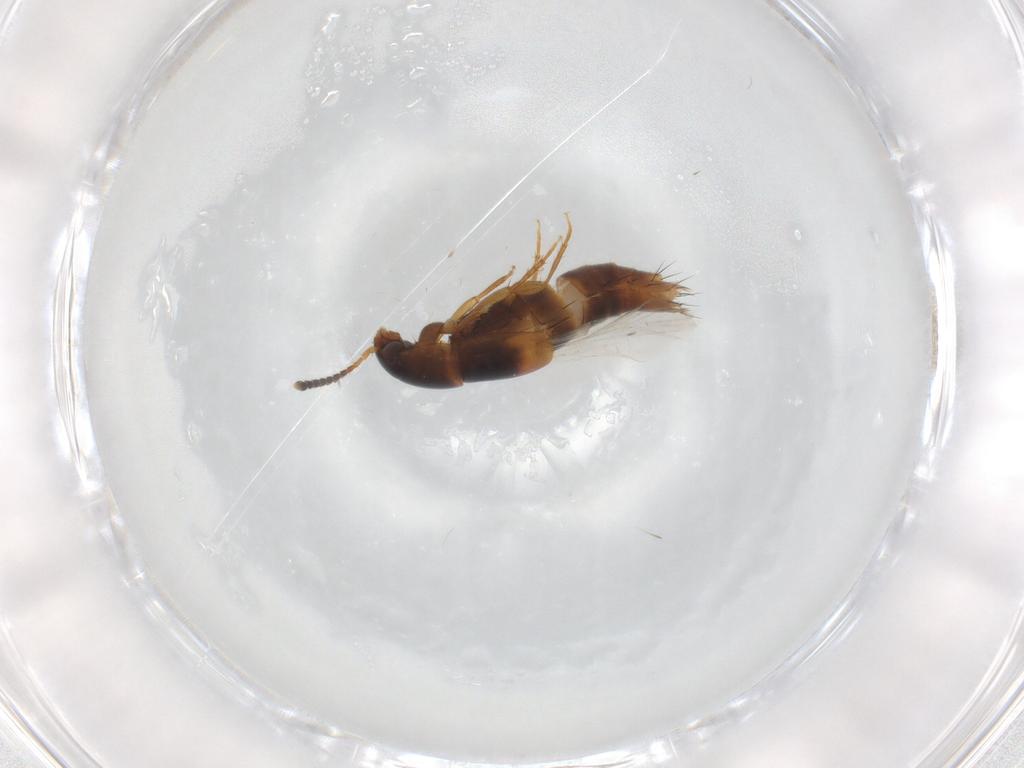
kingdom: Animalia
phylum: Arthropoda
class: Insecta
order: Coleoptera
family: Staphylinidae
